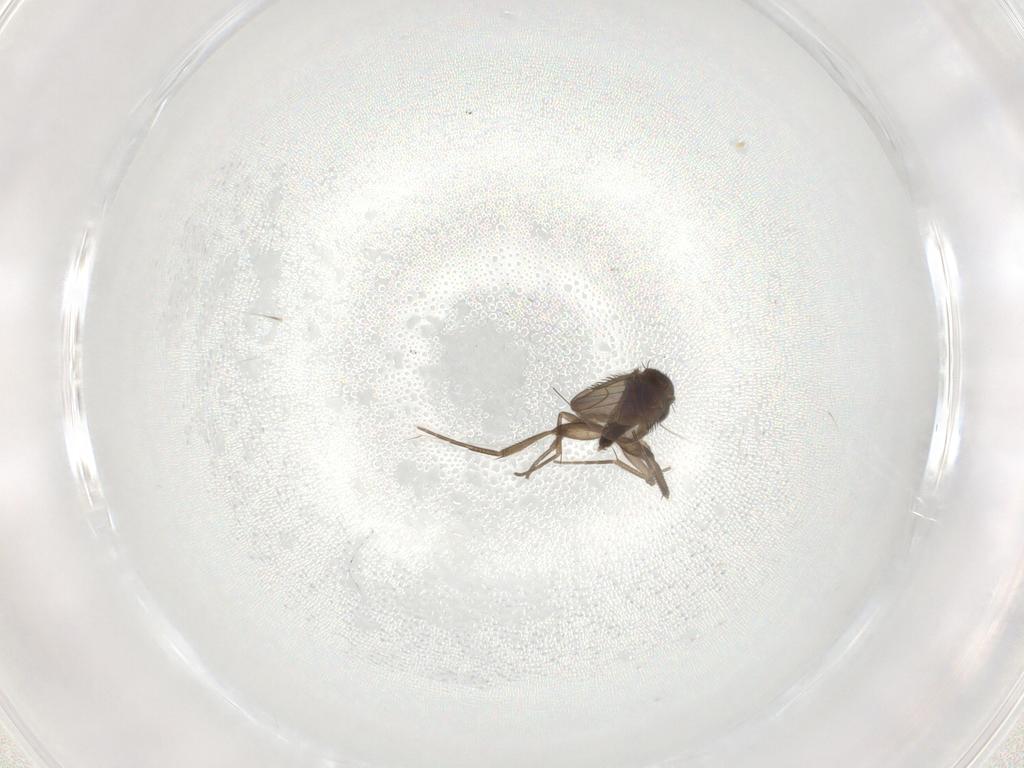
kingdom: Animalia
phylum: Arthropoda
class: Insecta
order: Diptera
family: Phoridae
